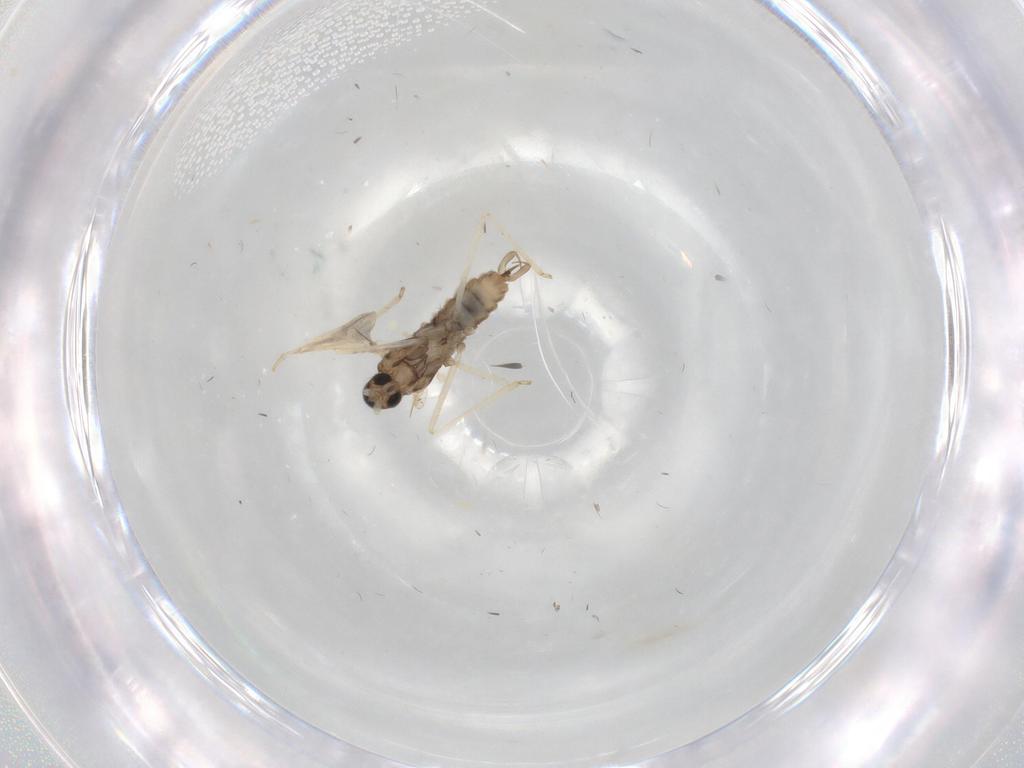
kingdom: Animalia
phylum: Arthropoda
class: Insecta
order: Diptera
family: Cecidomyiidae
